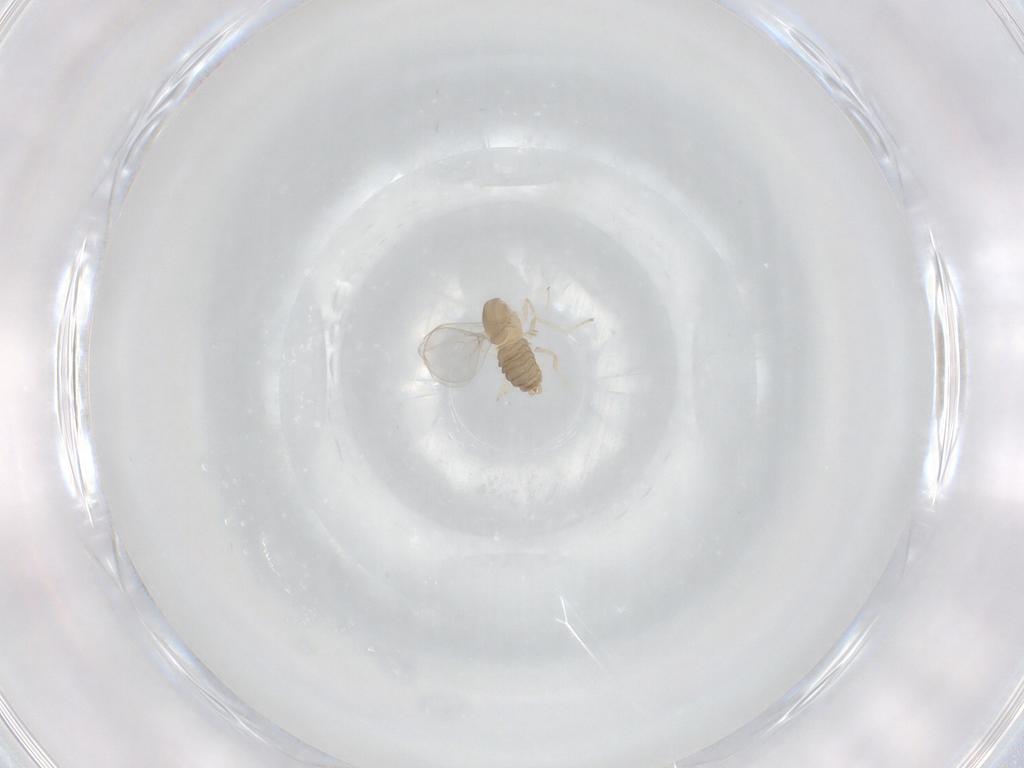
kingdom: Animalia
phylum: Arthropoda
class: Insecta
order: Diptera
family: Cecidomyiidae
